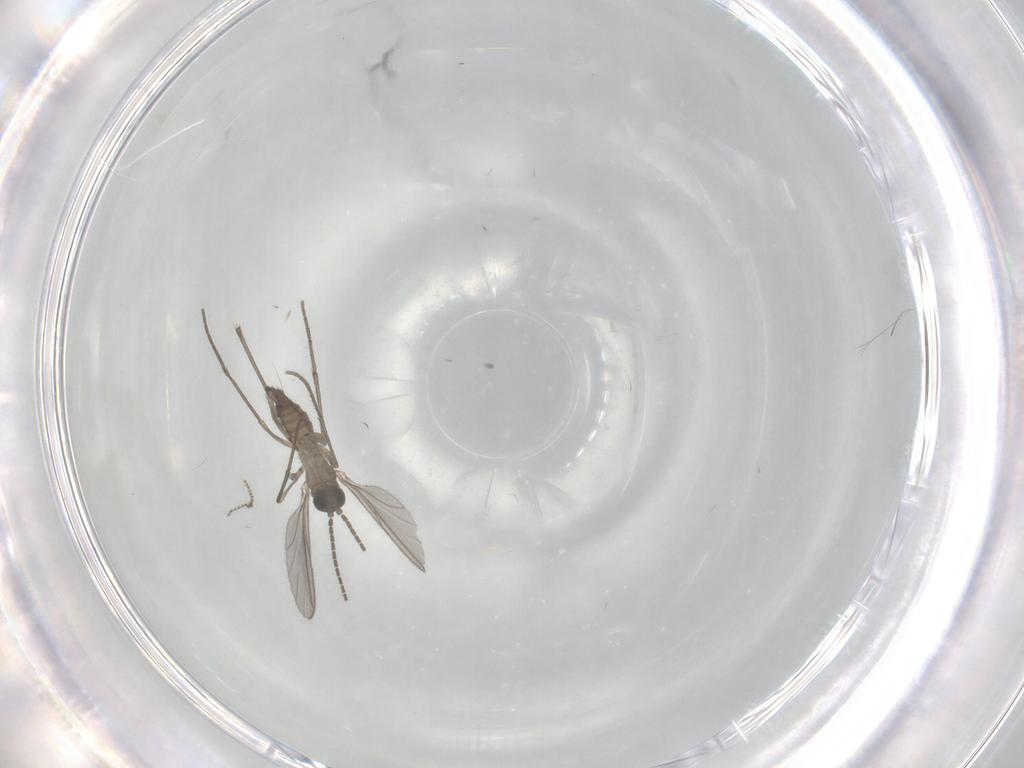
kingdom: Animalia
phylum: Arthropoda
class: Insecta
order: Diptera
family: Sciaridae
